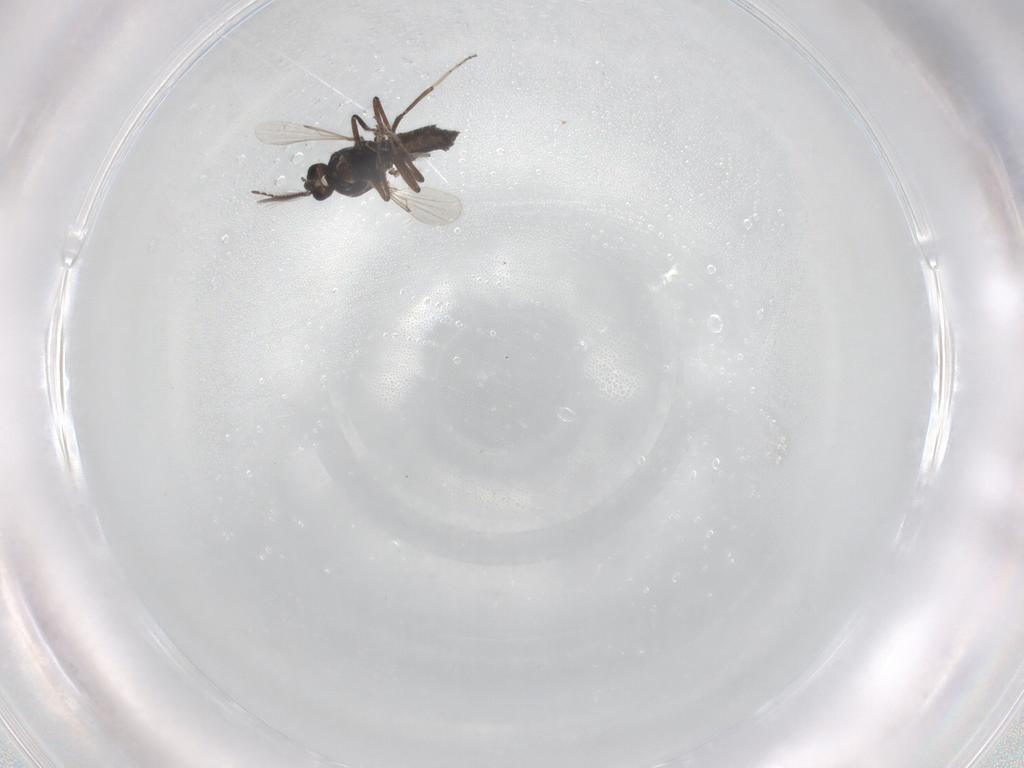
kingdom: Animalia
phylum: Arthropoda
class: Insecta
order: Diptera
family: Ceratopogonidae
